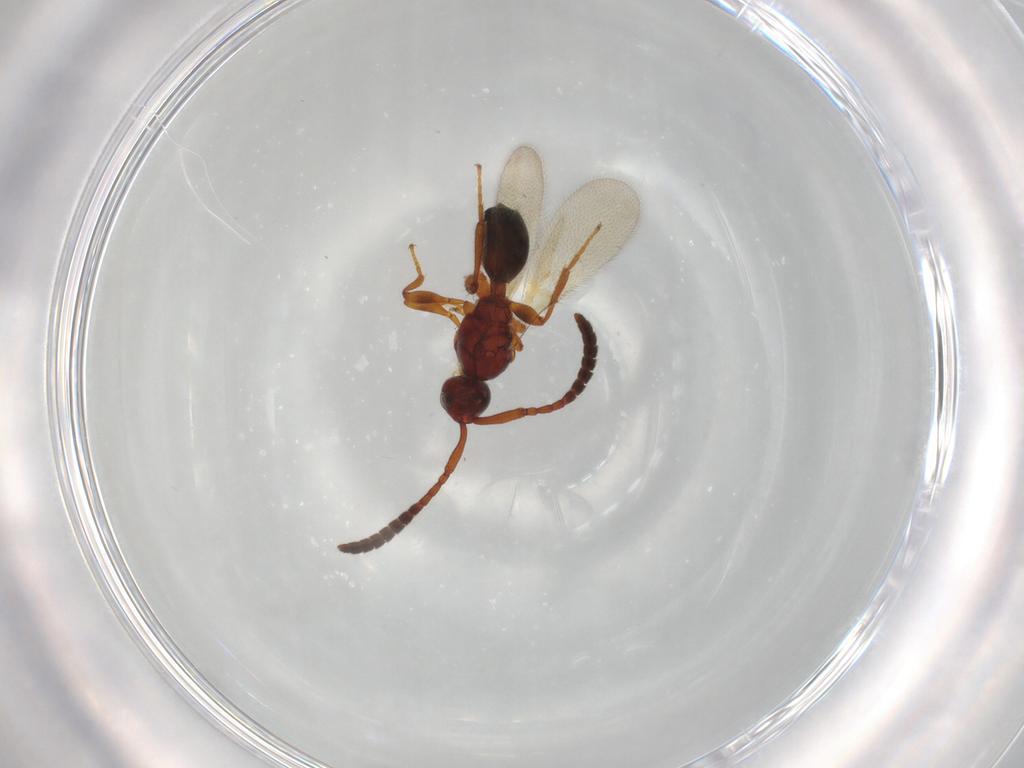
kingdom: Animalia
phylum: Arthropoda
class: Insecta
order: Hymenoptera
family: Diapriidae
